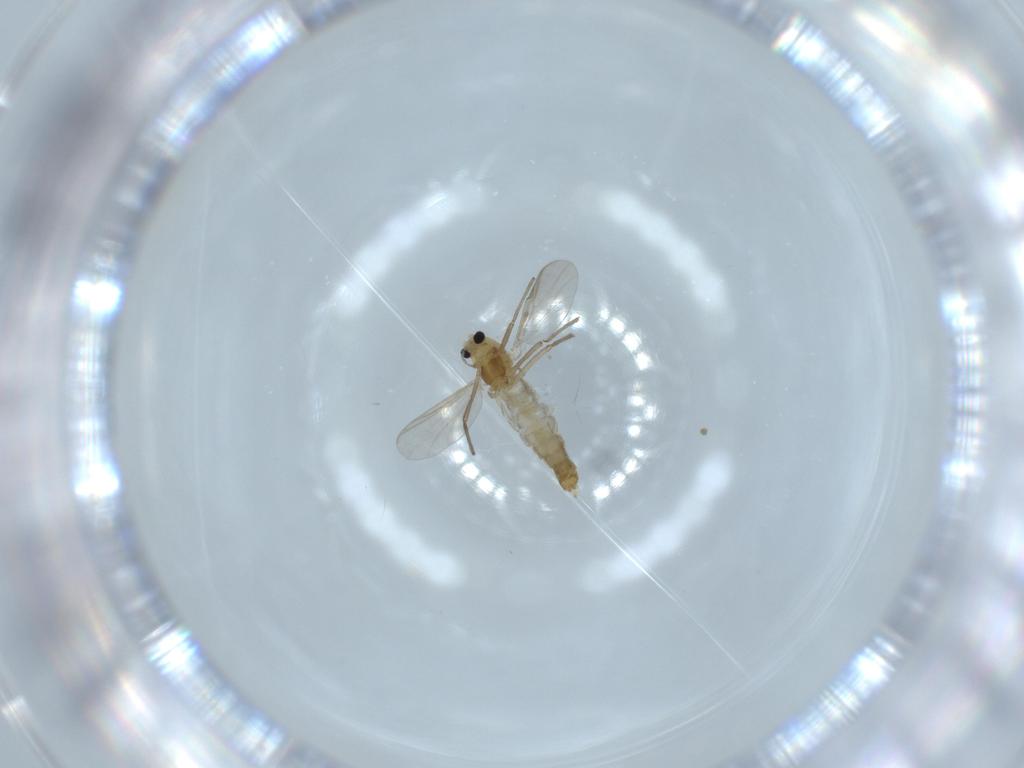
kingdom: Animalia
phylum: Arthropoda
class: Insecta
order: Diptera
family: Chironomidae
